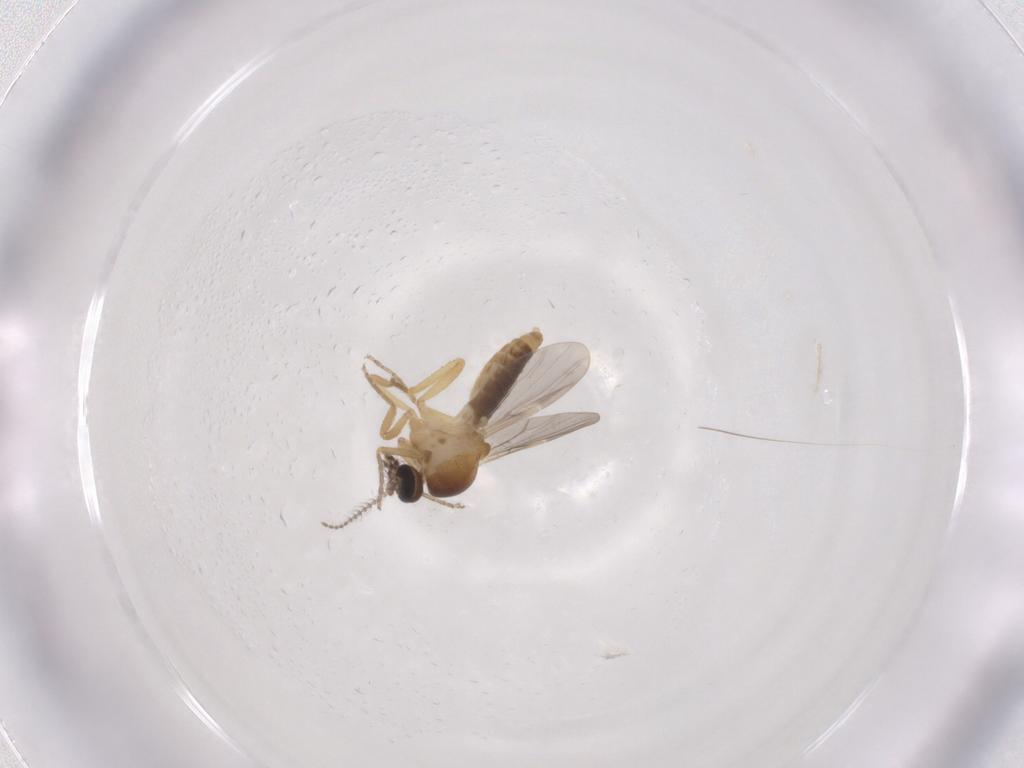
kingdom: Animalia
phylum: Arthropoda
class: Insecta
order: Diptera
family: Ceratopogonidae
